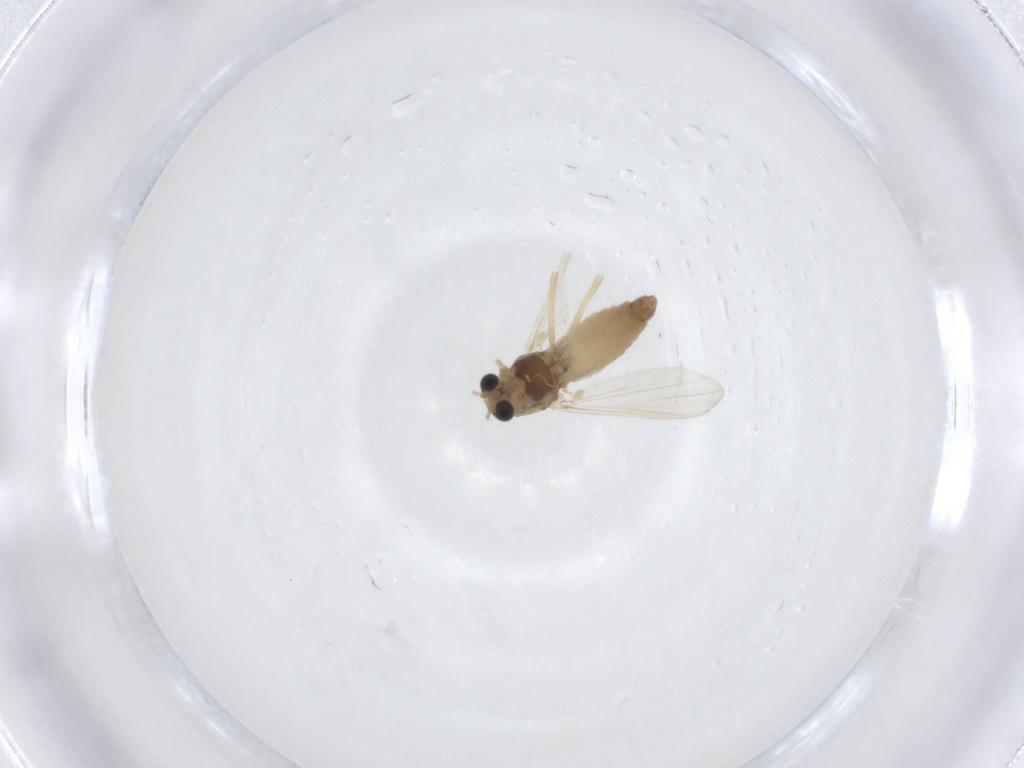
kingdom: Animalia
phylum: Arthropoda
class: Insecta
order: Diptera
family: Chironomidae
